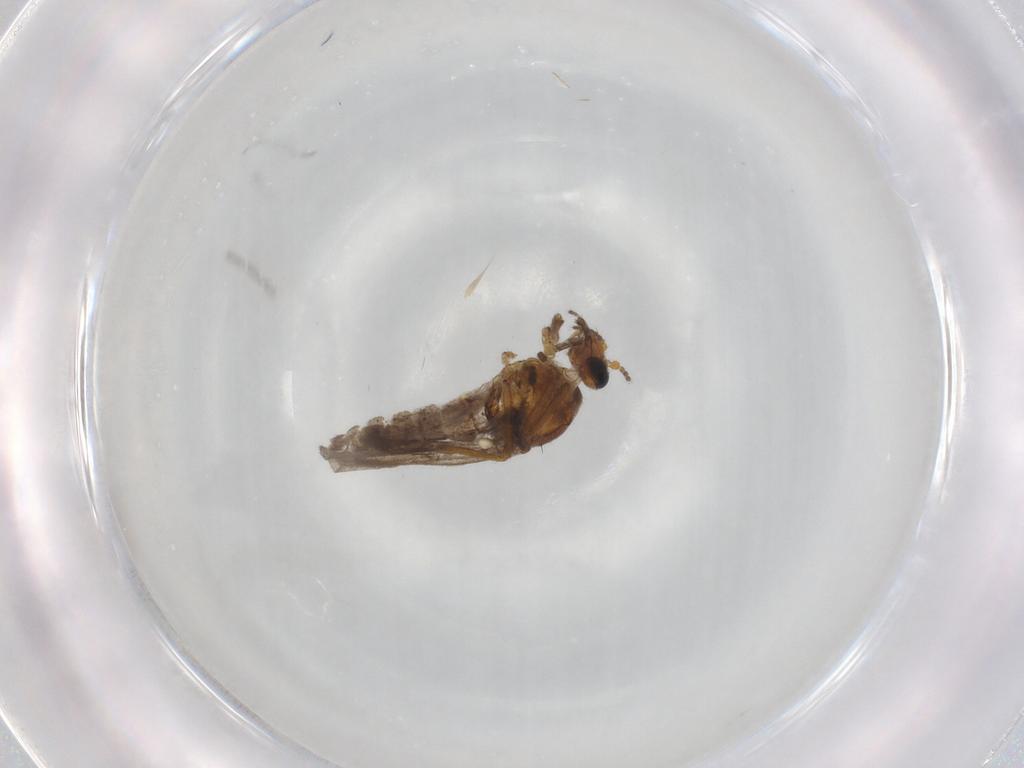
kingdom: Animalia
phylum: Arthropoda
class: Insecta
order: Diptera
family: Ceratopogonidae
